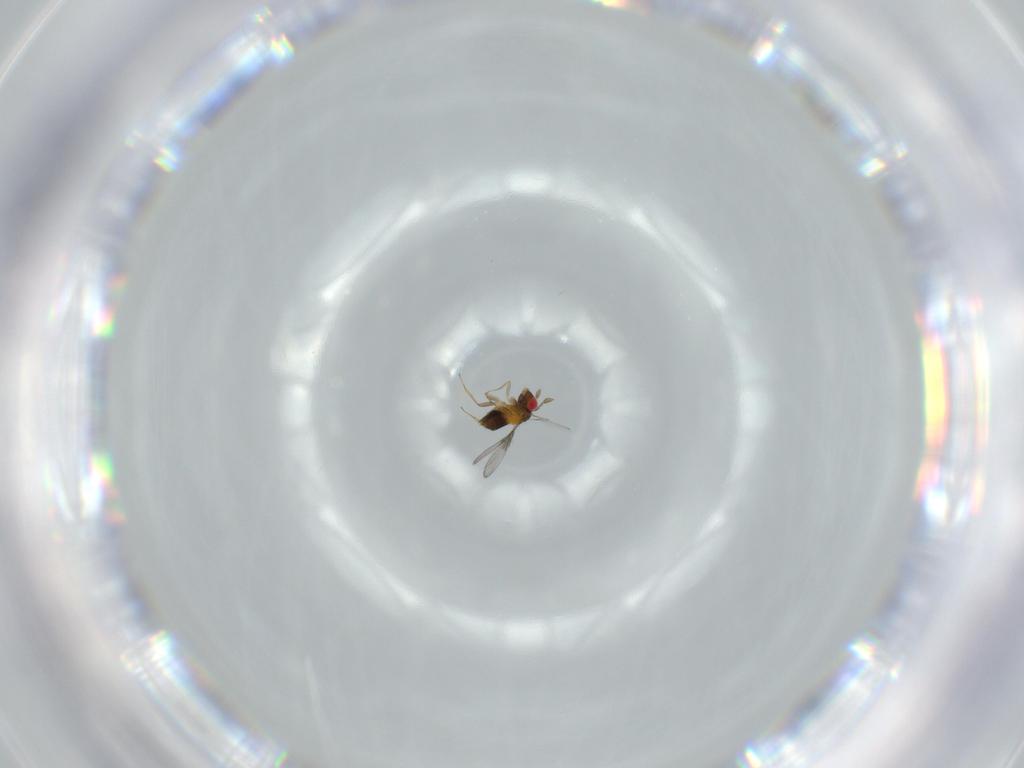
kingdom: Animalia
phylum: Arthropoda
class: Insecta
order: Hymenoptera
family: Trichogrammatidae
